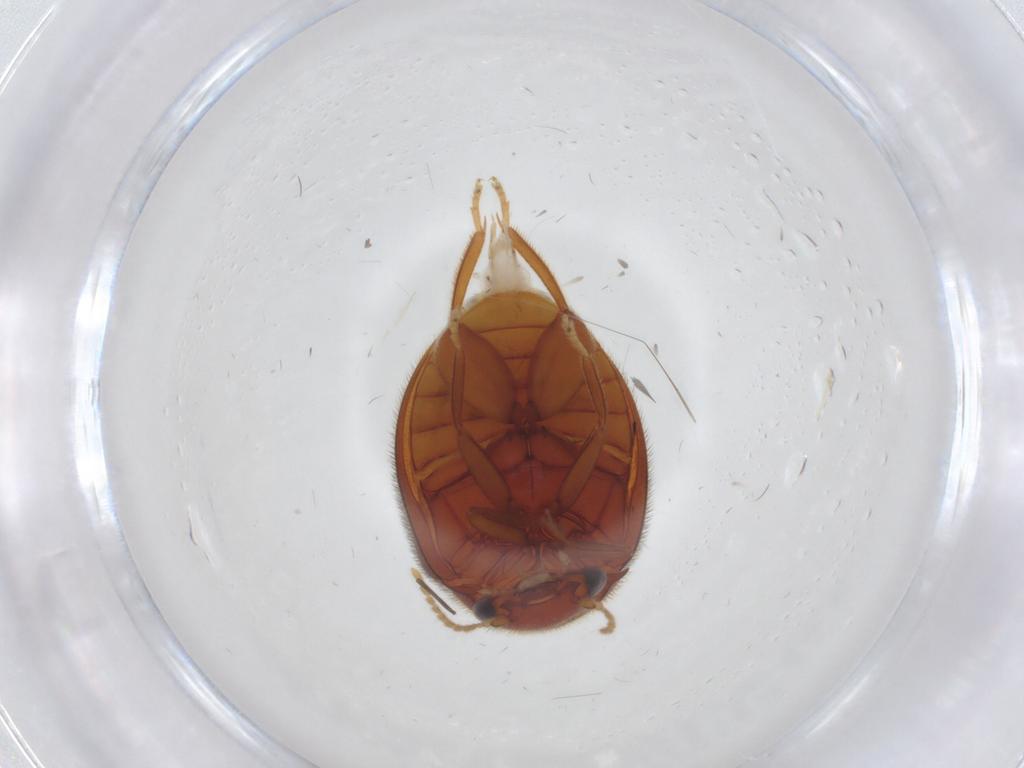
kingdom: Animalia
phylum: Arthropoda
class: Insecta
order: Coleoptera
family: Scirtidae
